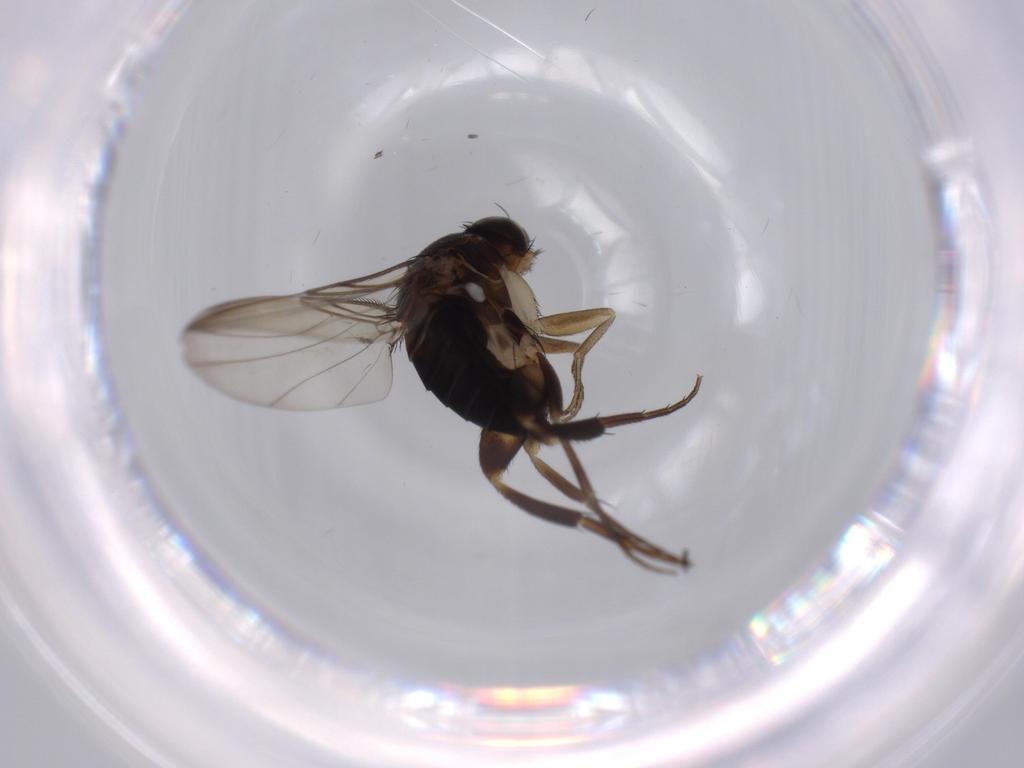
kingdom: Animalia
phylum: Arthropoda
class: Insecta
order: Diptera
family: Phoridae
